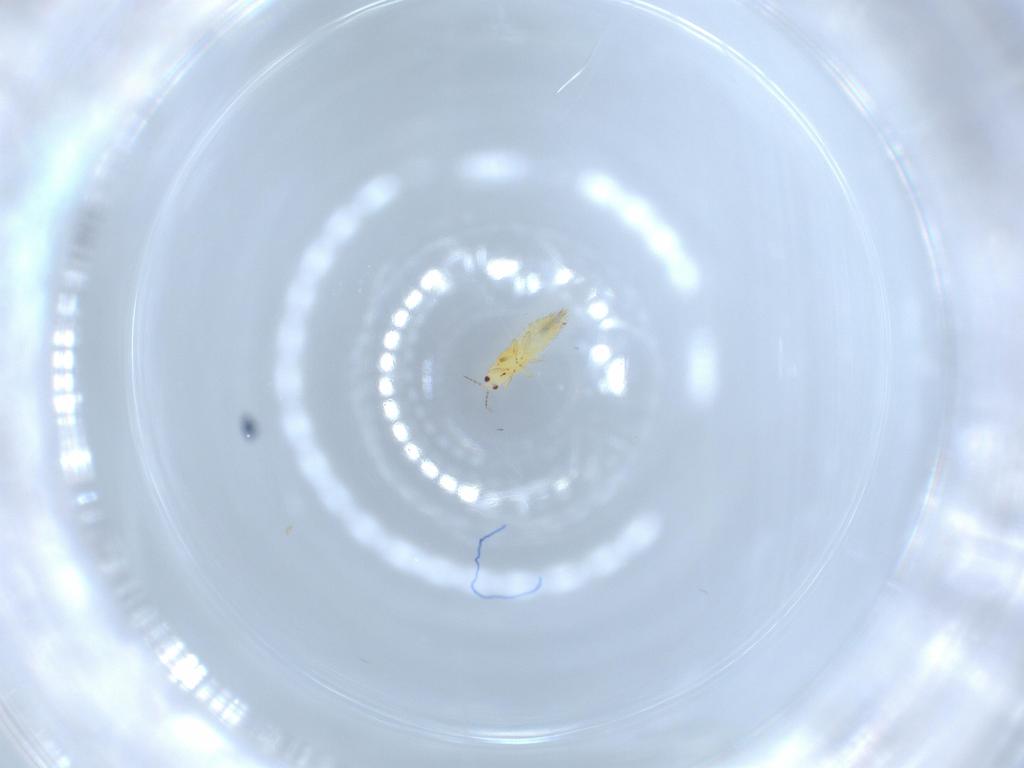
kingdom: Animalia
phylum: Arthropoda
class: Insecta
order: Thysanoptera
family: Thripidae
